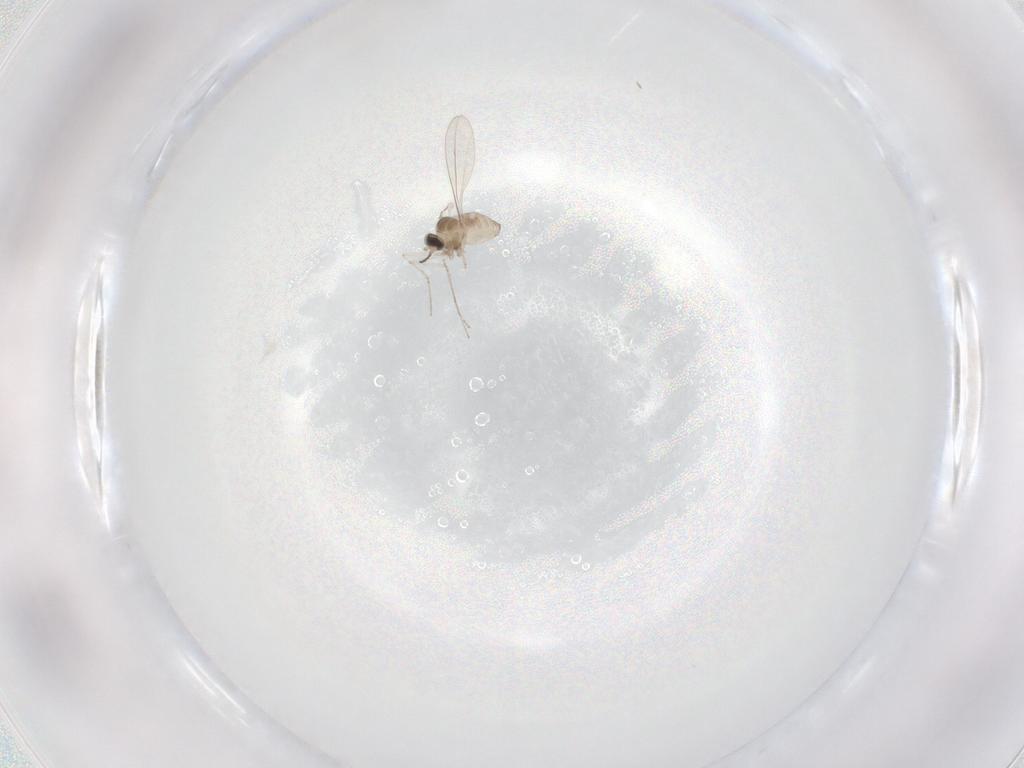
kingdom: Animalia
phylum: Arthropoda
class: Insecta
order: Diptera
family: Cecidomyiidae
